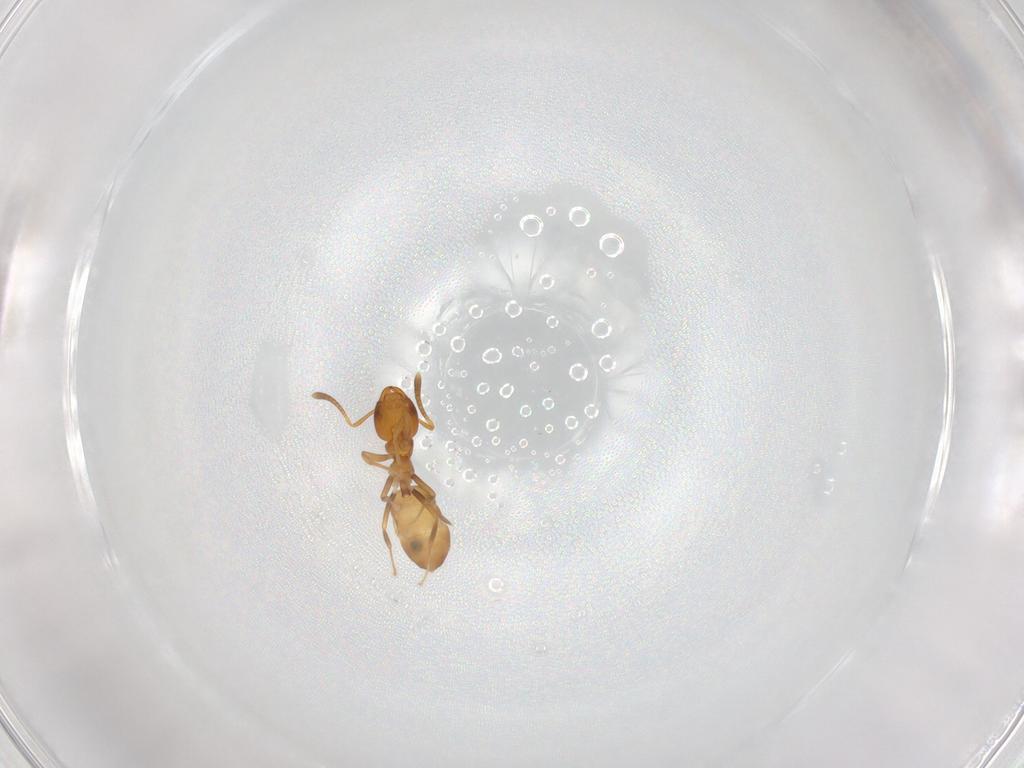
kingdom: Animalia
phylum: Arthropoda
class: Insecta
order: Hymenoptera
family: Formicidae
